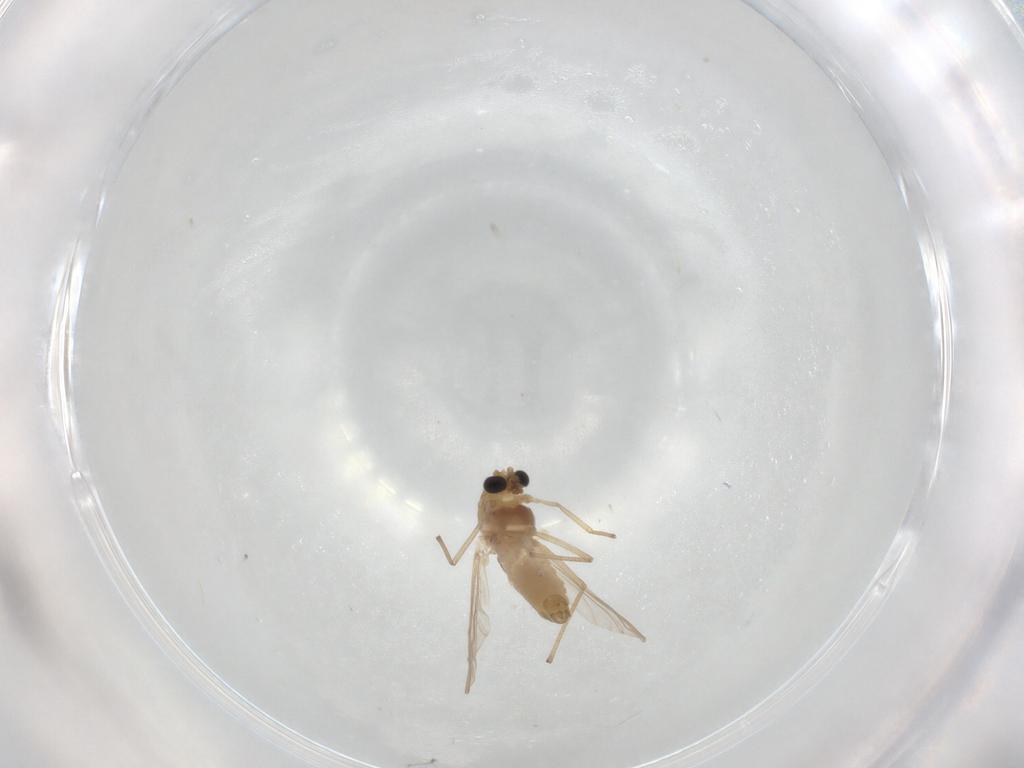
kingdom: Animalia
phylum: Arthropoda
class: Insecta
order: Diptera
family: Chironomidae
